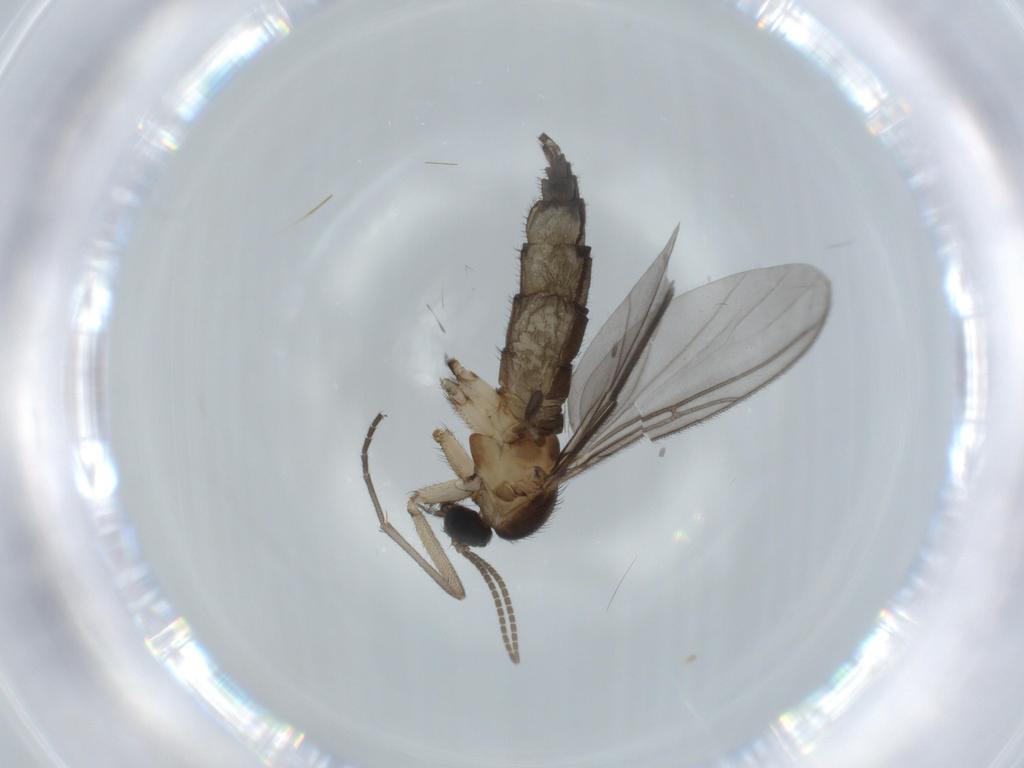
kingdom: Animalia
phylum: Arthropoda
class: Insecta
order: Diptera
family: Sciaridae
